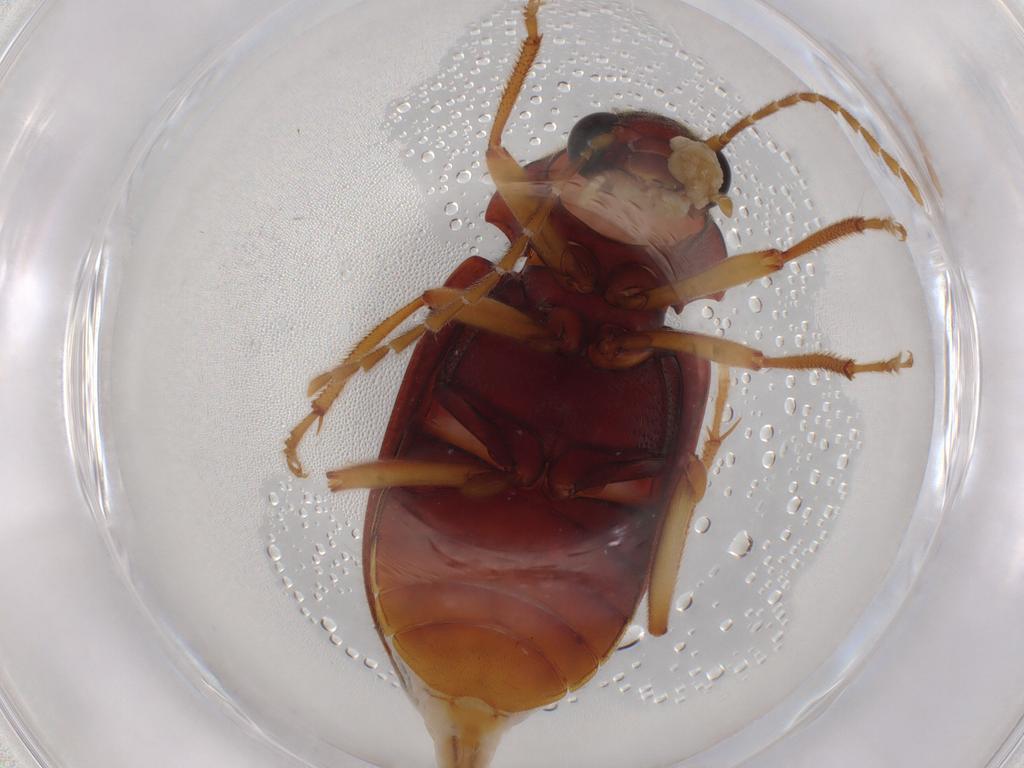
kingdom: Animalia
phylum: Arthropoda
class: Insecta
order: Coleoptera
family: Ptilodactylidae
